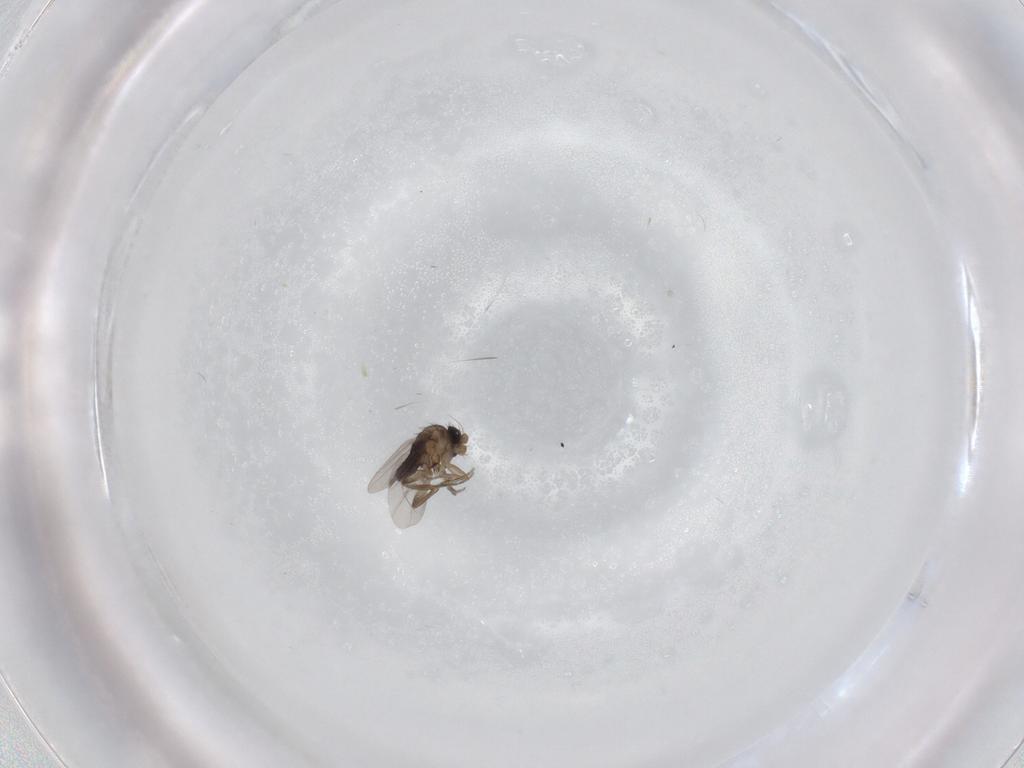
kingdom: Animalia
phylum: Arthropoda
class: Insecta
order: Diptera
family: Phoridae
